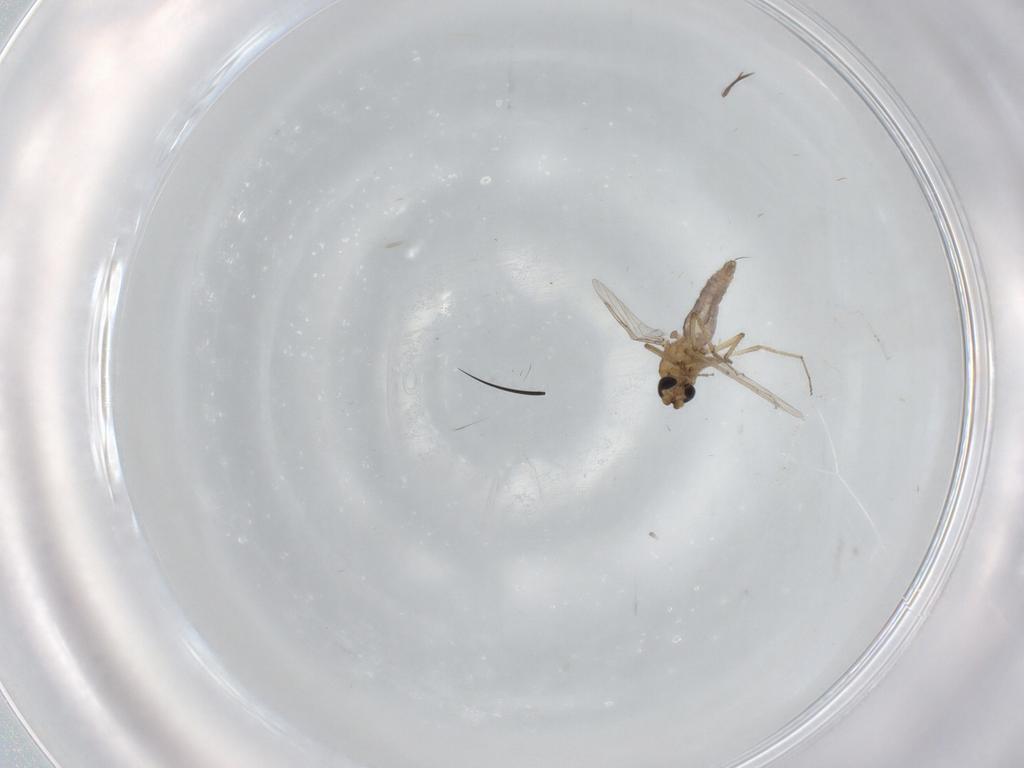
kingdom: Animalia
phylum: Arthropoda
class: Insecta
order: Diptera
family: Ceratopogonidae
